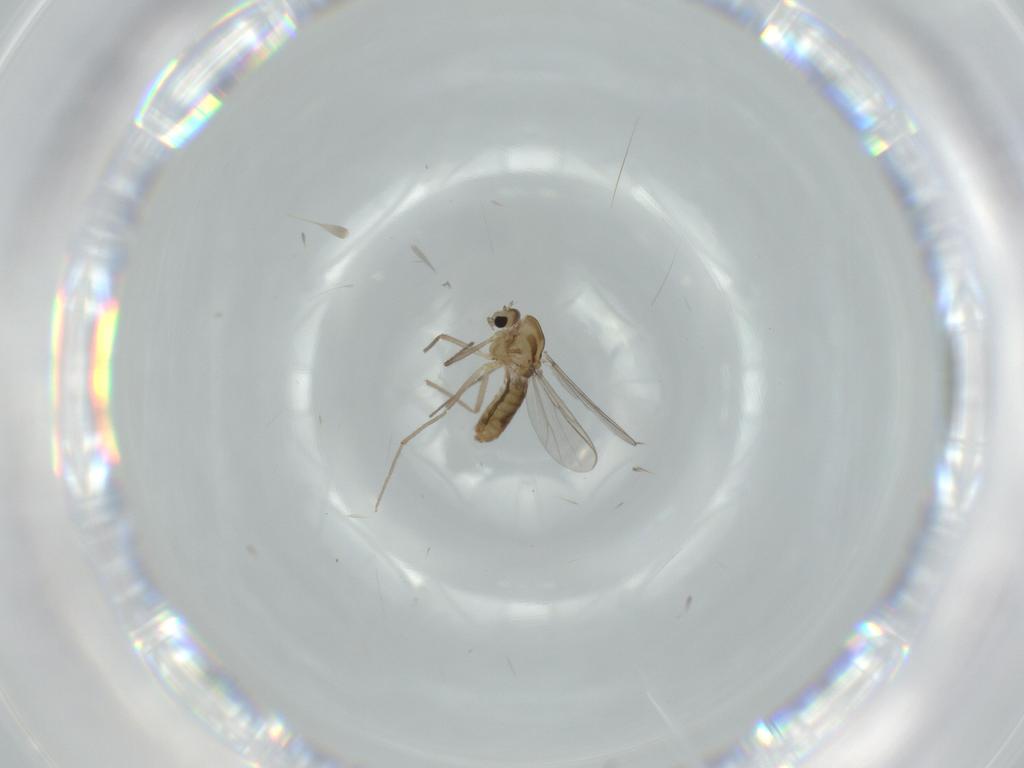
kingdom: Animalia
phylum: Arthropoda
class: Insecta
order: Diptera
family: Chironomidae
